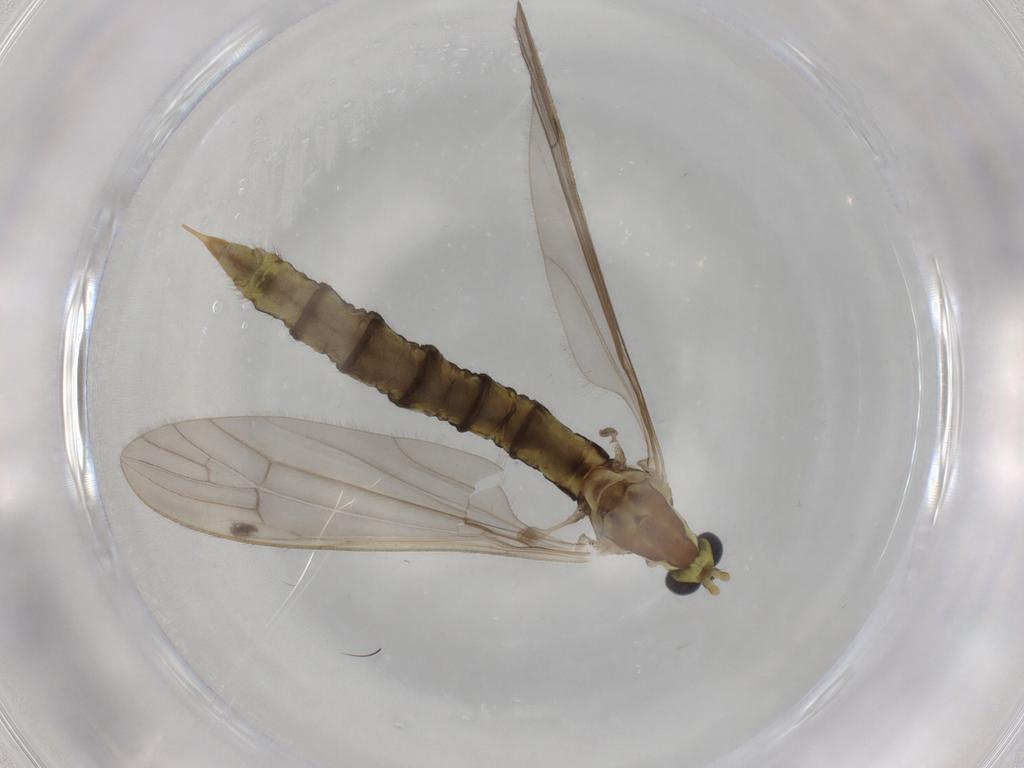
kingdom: Animalia
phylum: Arthropoda
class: Insecta
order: Diptera
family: Limoniidae
